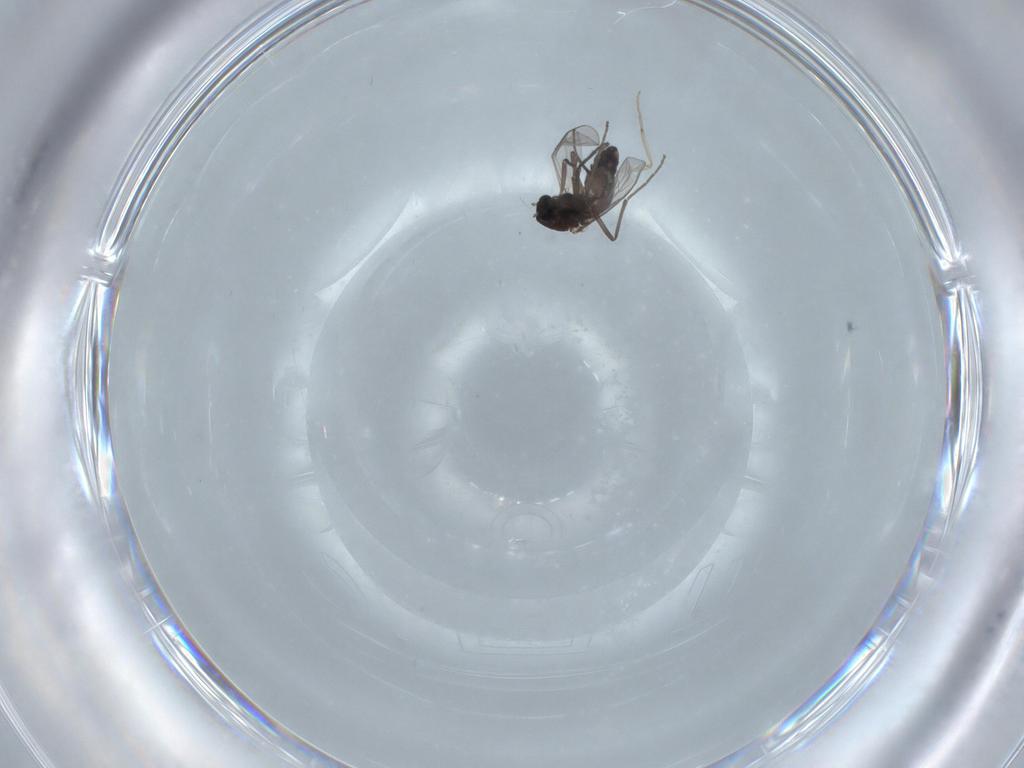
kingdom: Animalia
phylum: Arthropoda
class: Insecta
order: Diptera
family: Chironomidae
